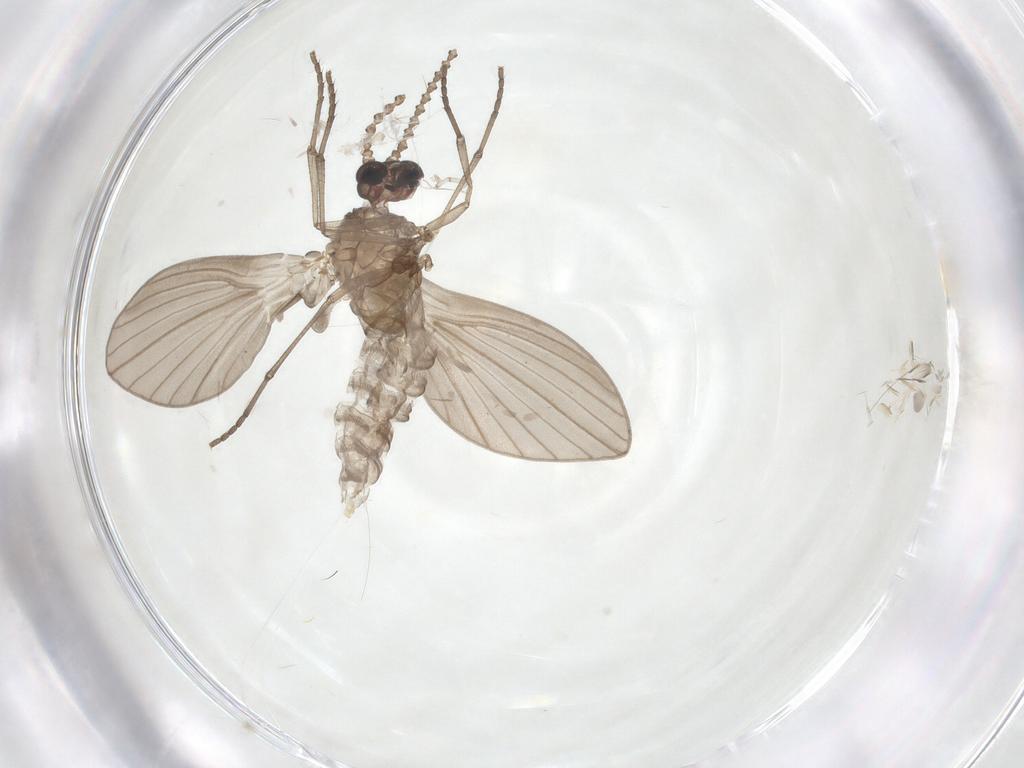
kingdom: Animalia
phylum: Arthropoda
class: Insecta
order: Diptera
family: Psychodidae
